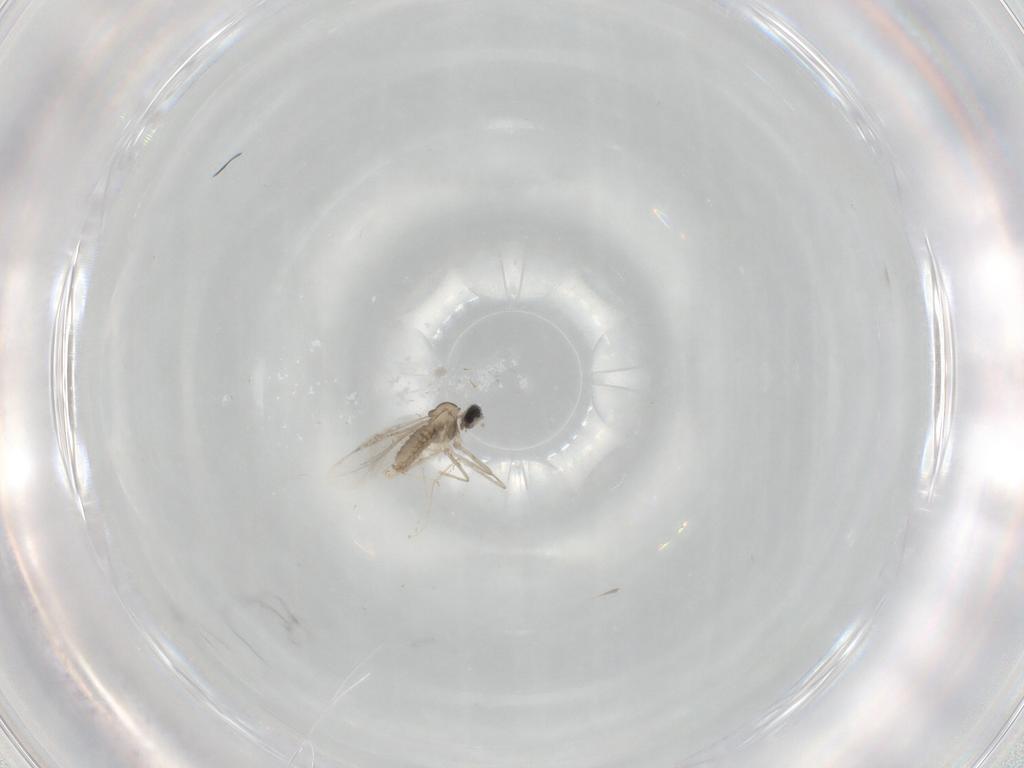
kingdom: Animalia
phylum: Arthropoda
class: Insecta
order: Diptera
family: Cecidomyiidae
